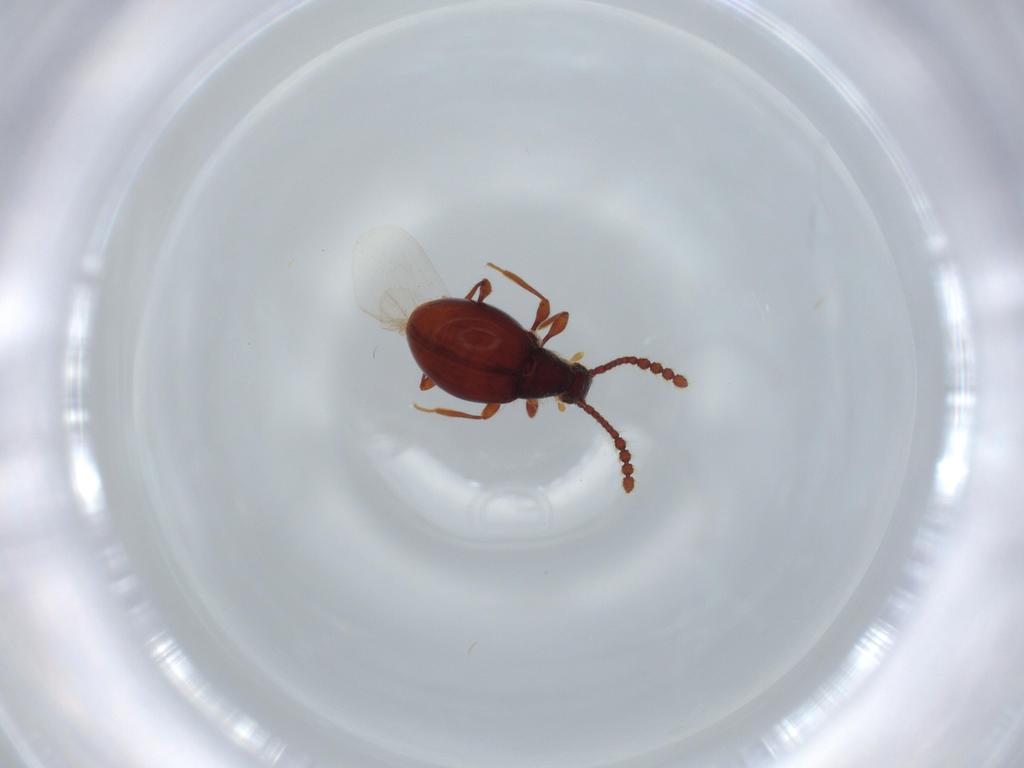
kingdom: Animalia
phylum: Arthropoda
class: Insecta
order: Coleoptera
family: Staphylinidae
